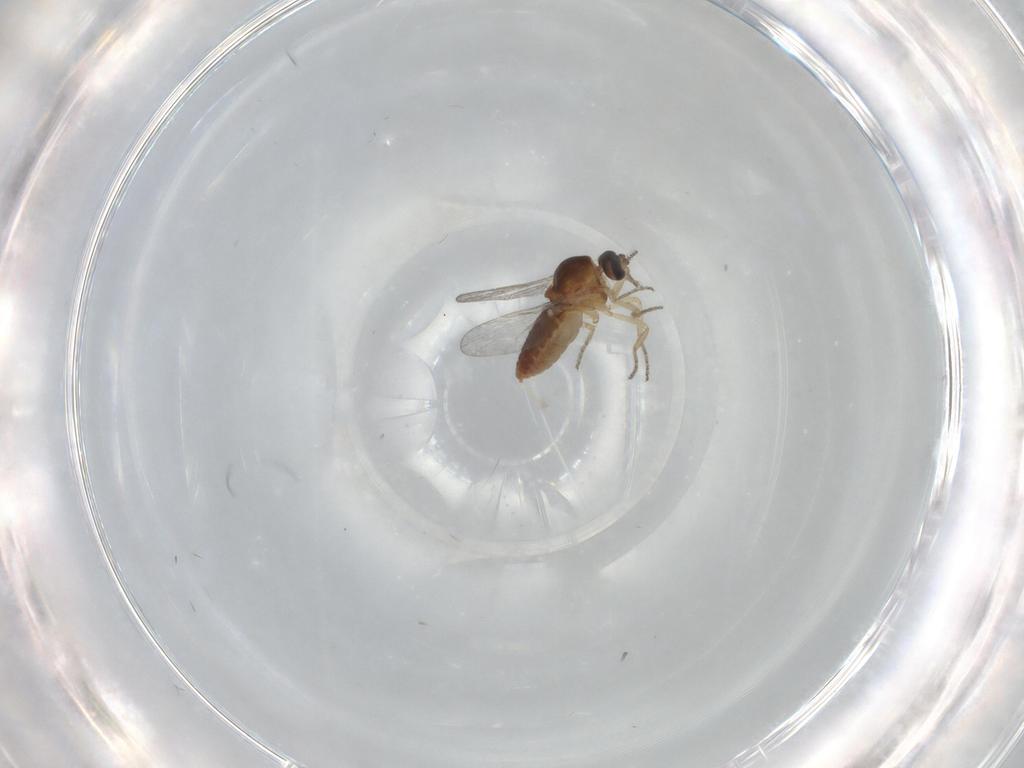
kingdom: Animalia
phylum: Arthropoda
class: Insecta
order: Diptera
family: Ceratopogonidae
